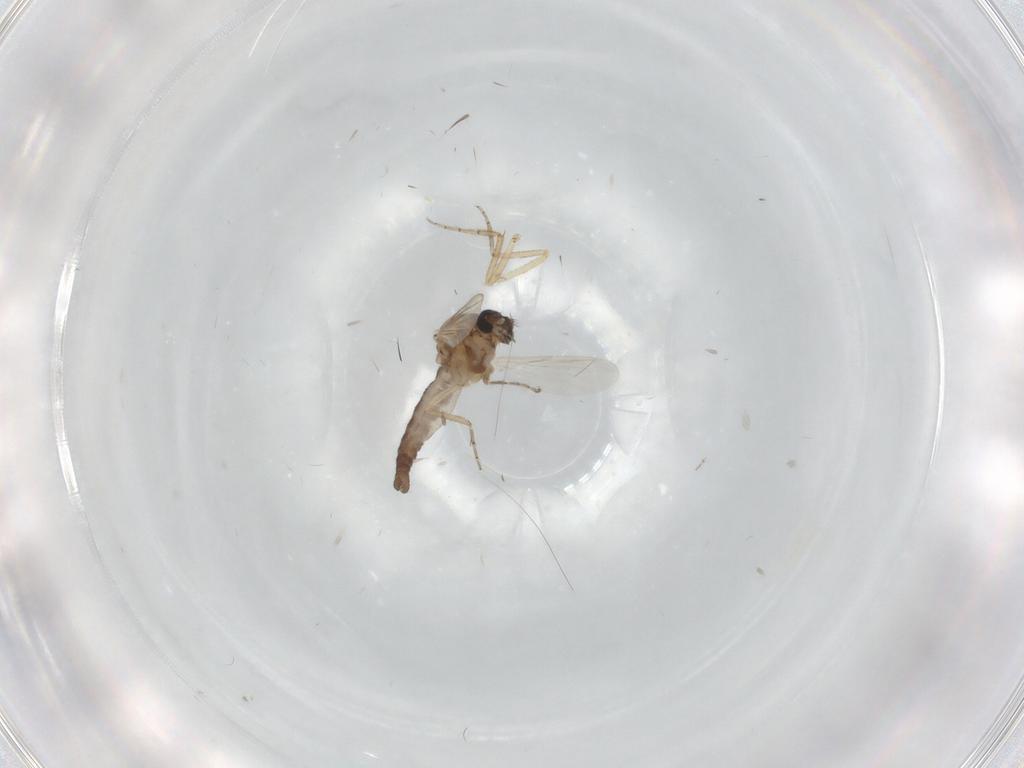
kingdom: Animalia
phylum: Arthropoda
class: Insecta
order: Diptera
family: Ceratopogonidae
